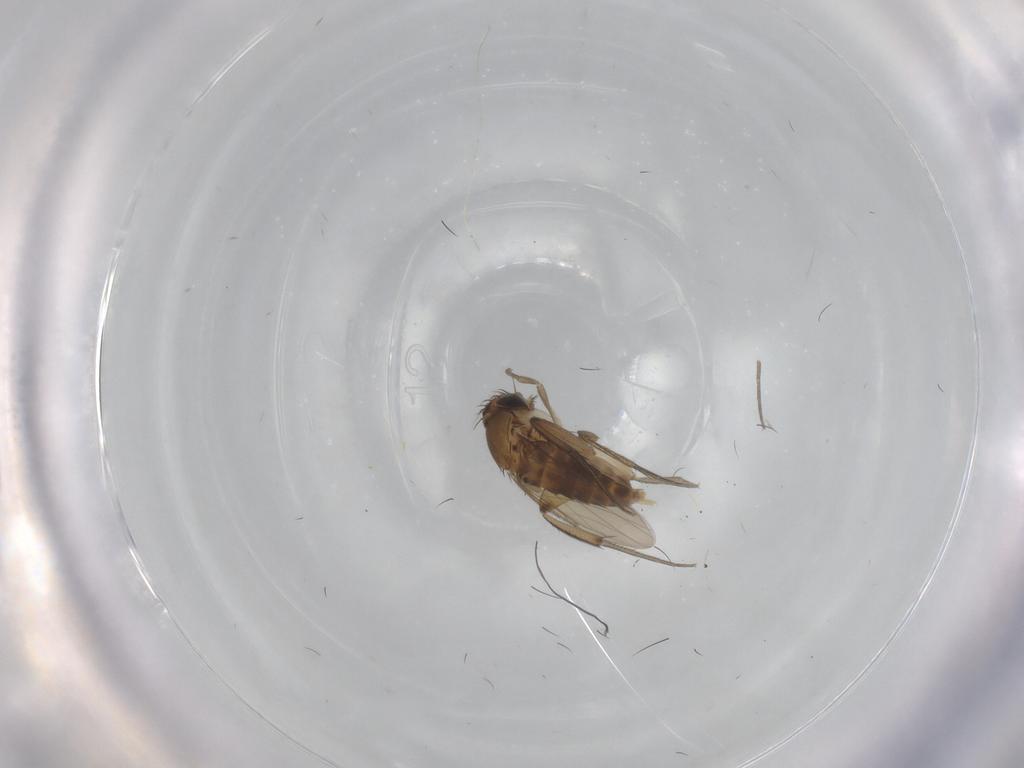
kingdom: Animalia
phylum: Arthropoda
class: Insecta
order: Diptera
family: Phoridae
